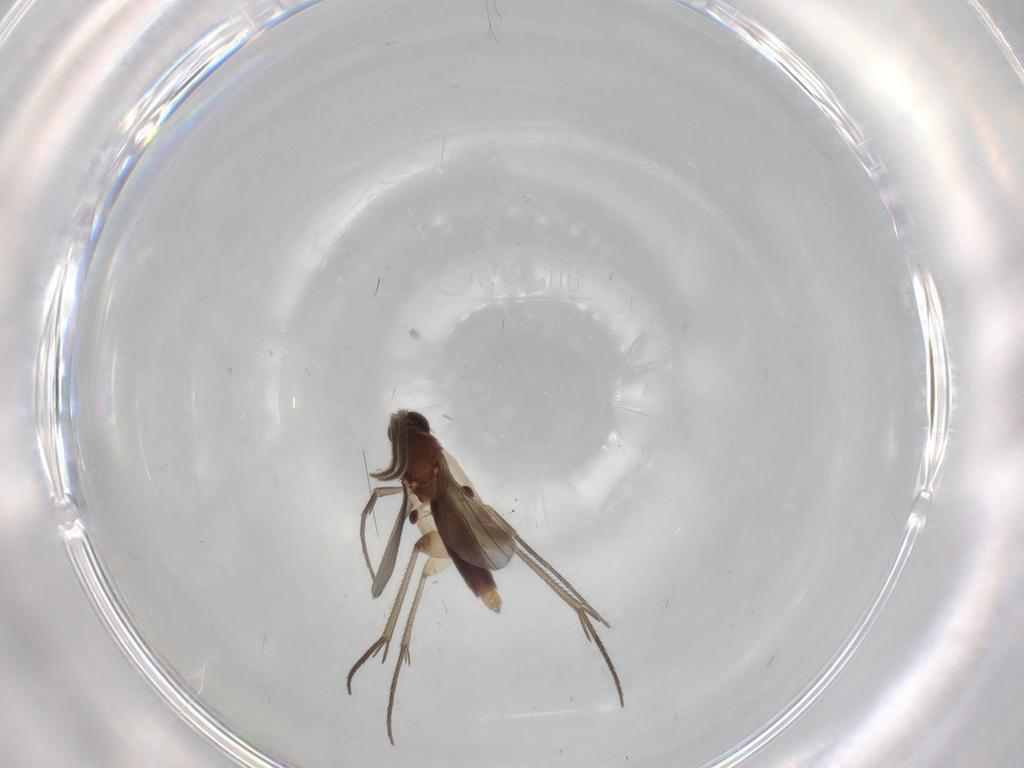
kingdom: Animalia
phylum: Arthropoda
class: Insecta
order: Diptera
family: Mycetophilidae
